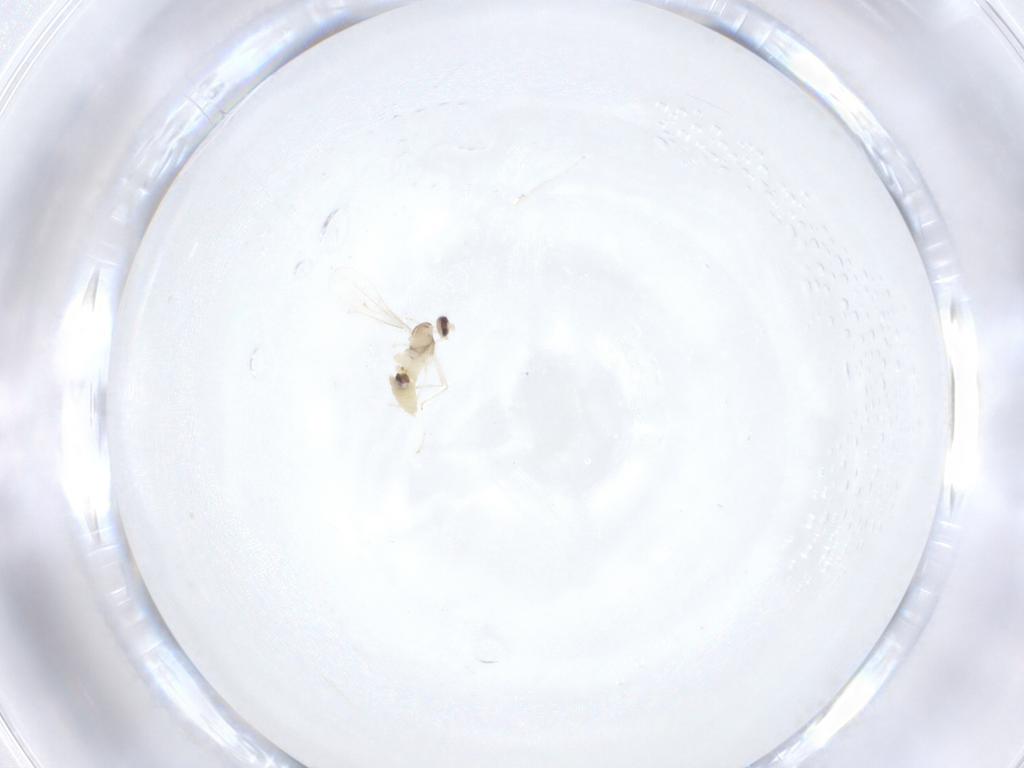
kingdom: Animalia
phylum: Arthropoda
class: Insecta
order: Diptera
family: Cecidomyiidae
